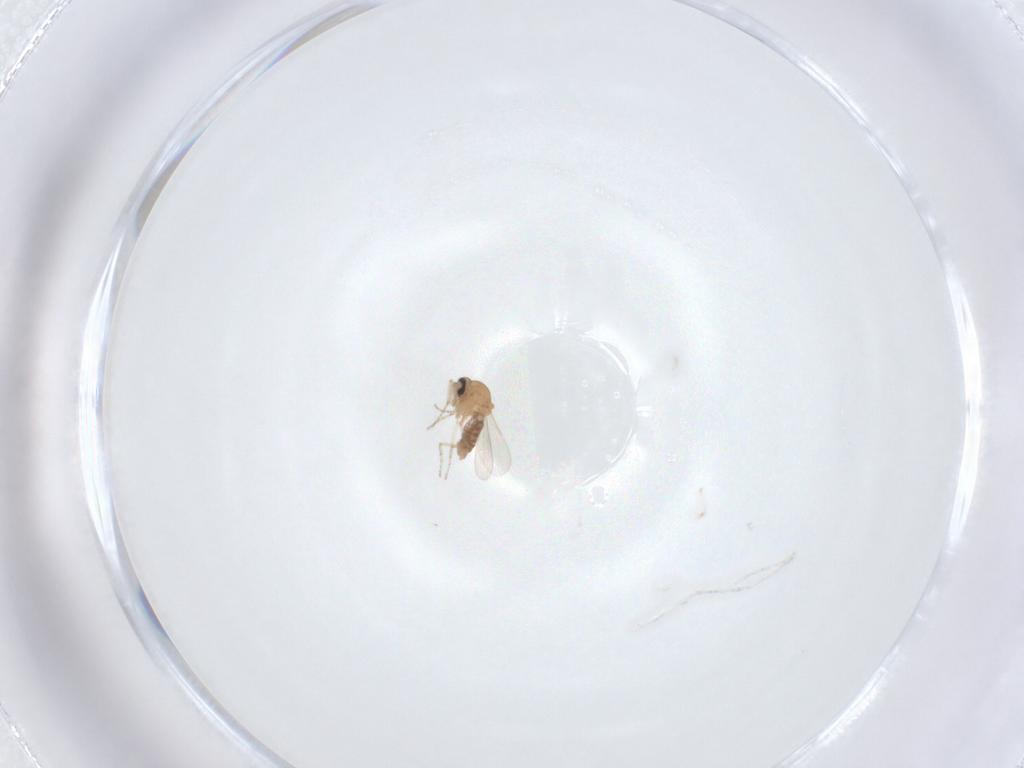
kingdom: Animalia
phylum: Arthropoda
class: Insecta
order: Diptera
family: Ceratopogonidae
